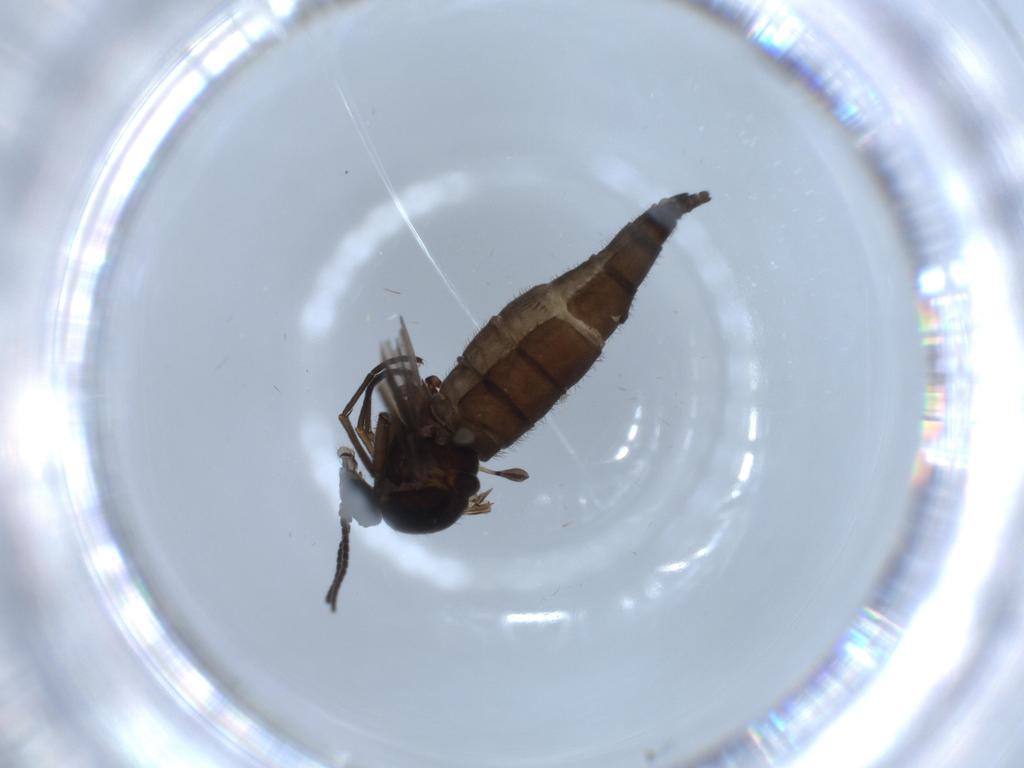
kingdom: Animalia
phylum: Arthropoda
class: Insecta
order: Diptera
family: Sciaridae
